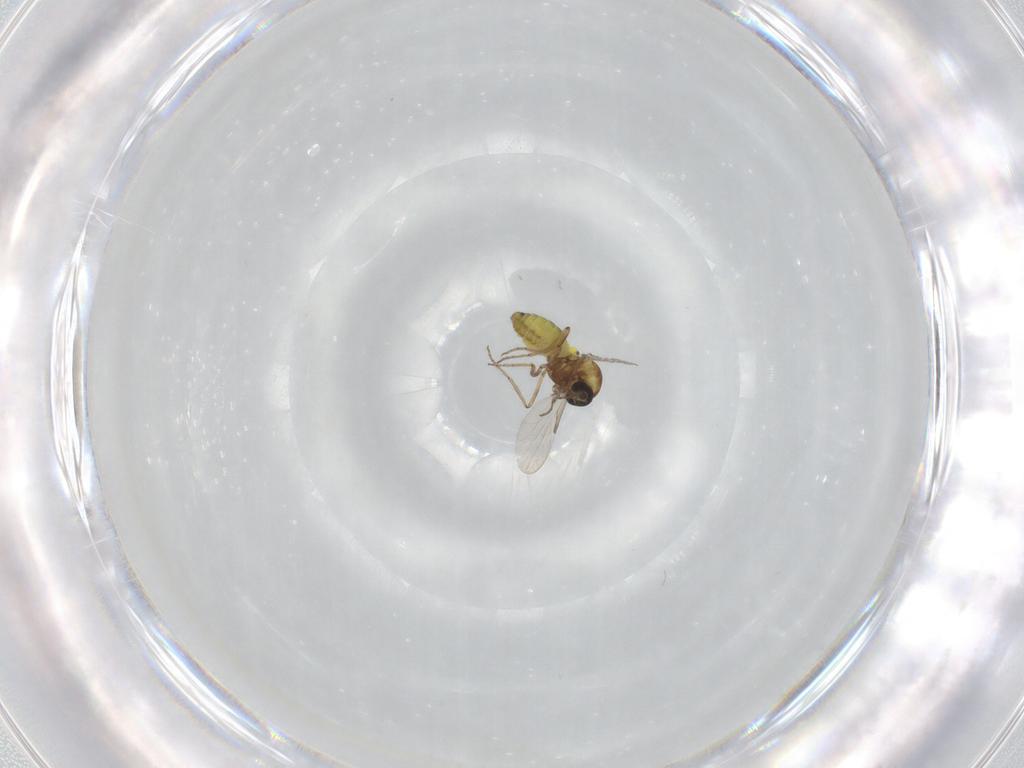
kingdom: Animalia
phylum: Arthropoda
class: Insecta
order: Diptera
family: Ceratopogonidae
